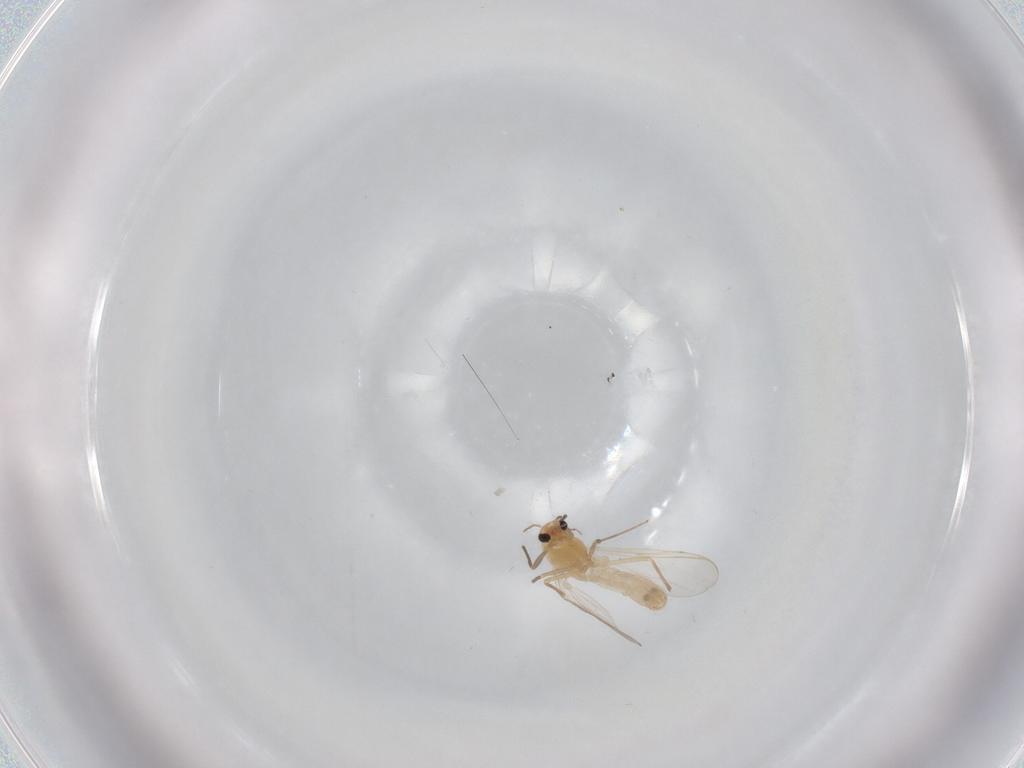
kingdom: Animalia
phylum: Arthropoda
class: Insecta
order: Diptera
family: Chironomidae
